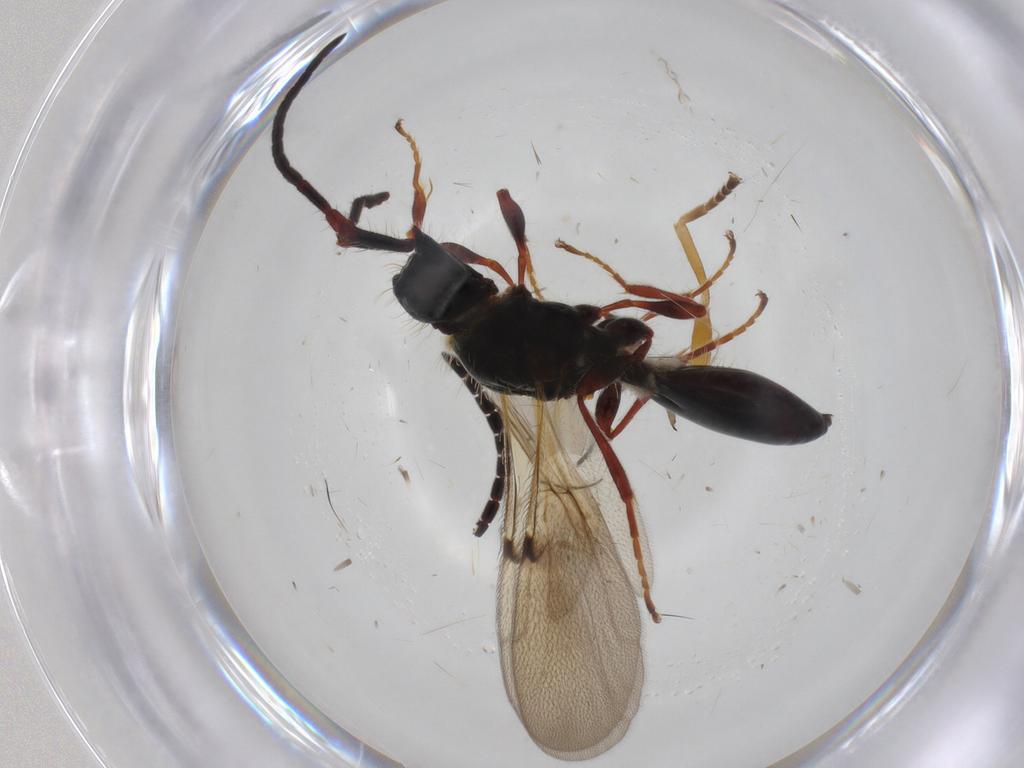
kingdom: Animalia
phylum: Arthropoda
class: Insecta
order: Hymenoptera
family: Diapriidae
